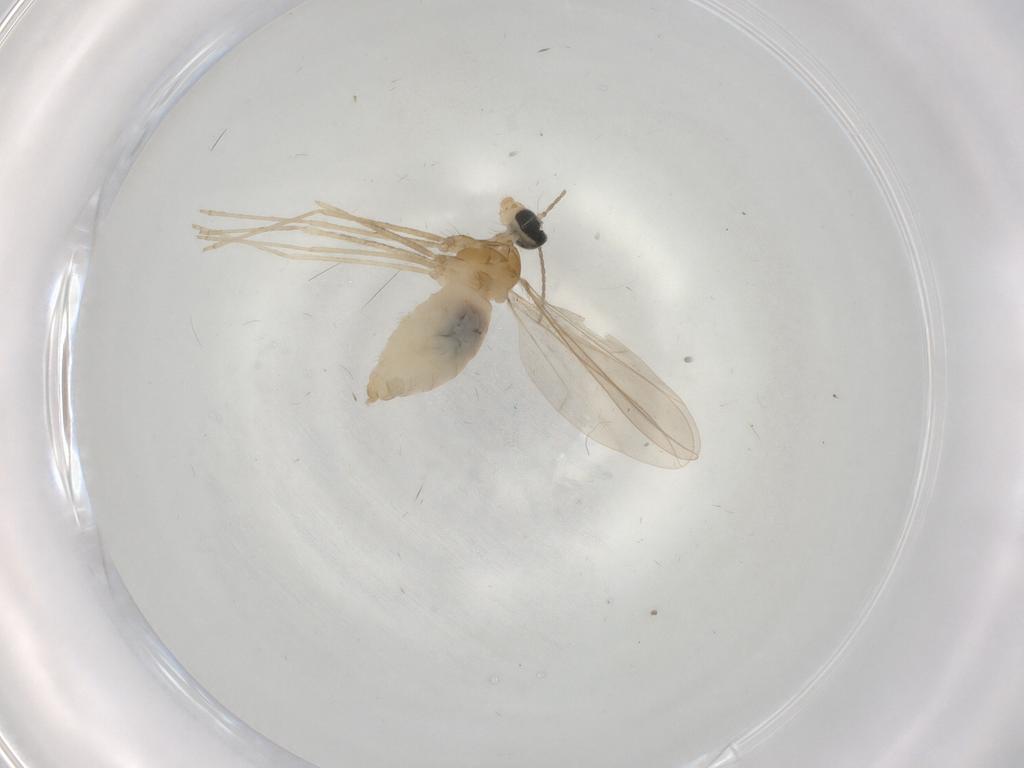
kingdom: Animalia
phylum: Arthropoda
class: Insecta
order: Diptera
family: Cecidomyiidae
